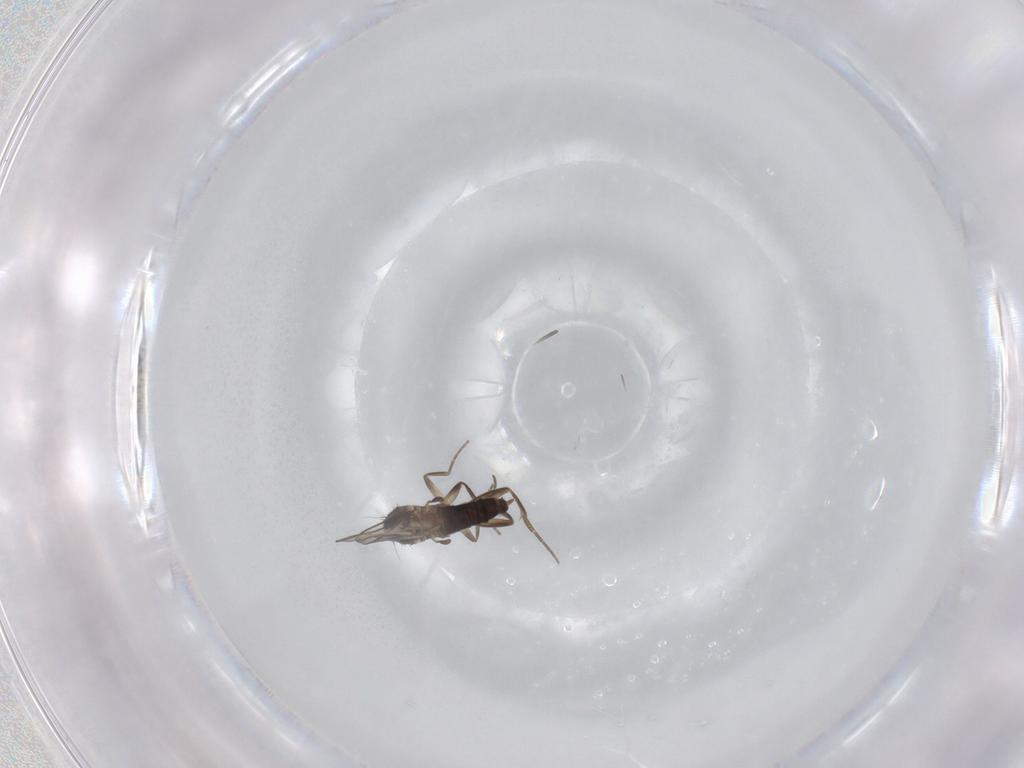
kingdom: Animalia
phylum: Arthropoda
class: Insecta
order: Diptera
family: Phoridae
